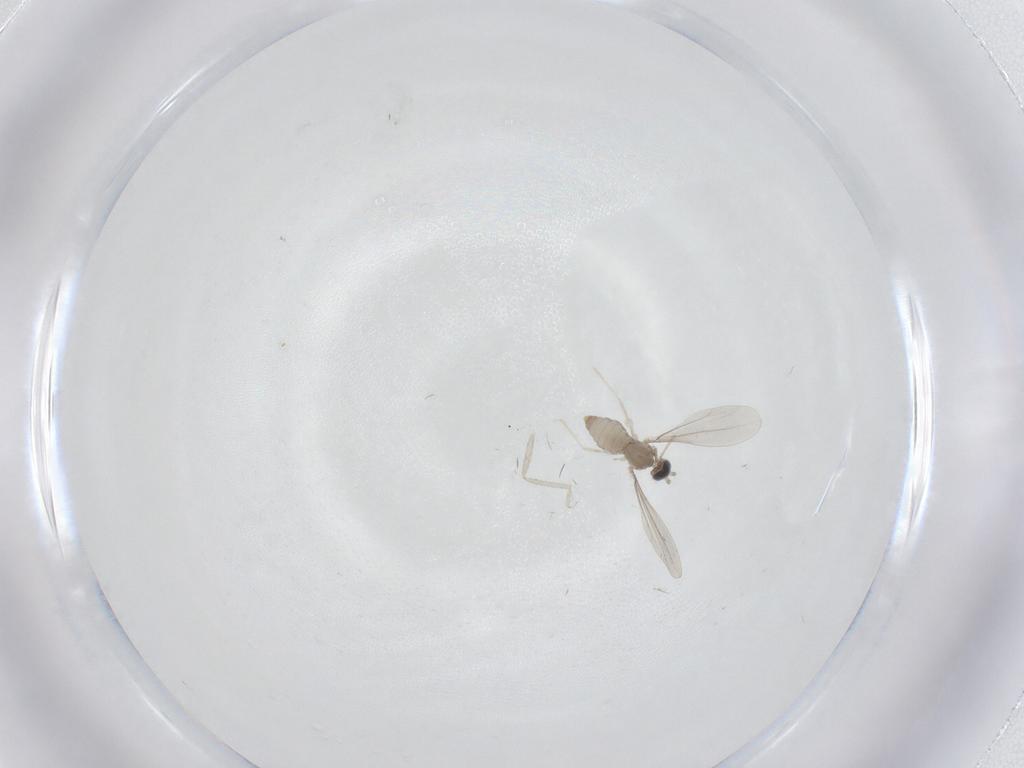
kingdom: Animalia
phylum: Arthropoda
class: Insecta
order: Diptera
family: Cecidomyiidae
